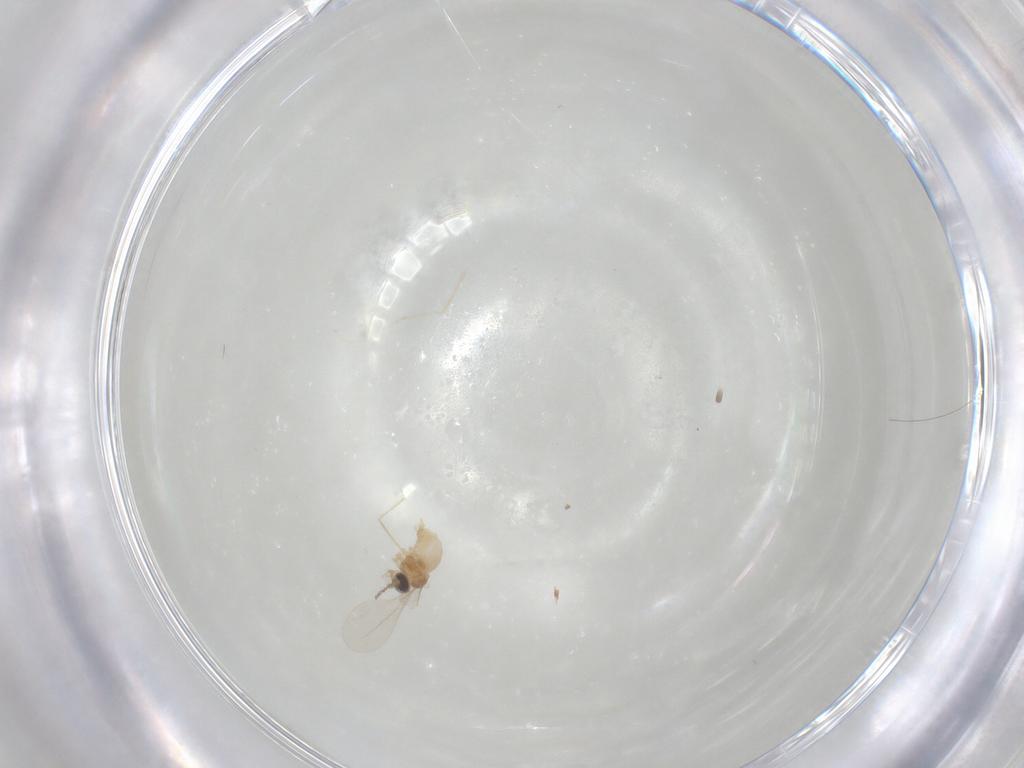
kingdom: Animalia
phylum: Arthropoda
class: Insecta
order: Diptera
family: Cecidomyiidae
